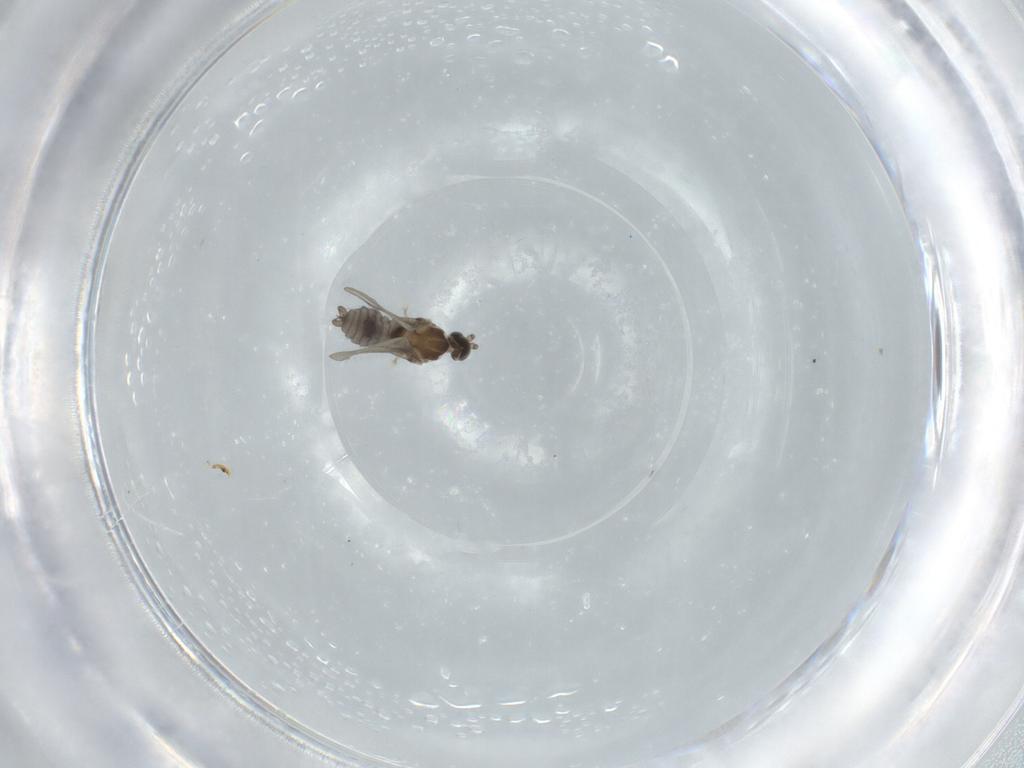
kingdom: Animalia
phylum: Arthropoda
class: Insecta
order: Diptera
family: Cecidomyiidae
